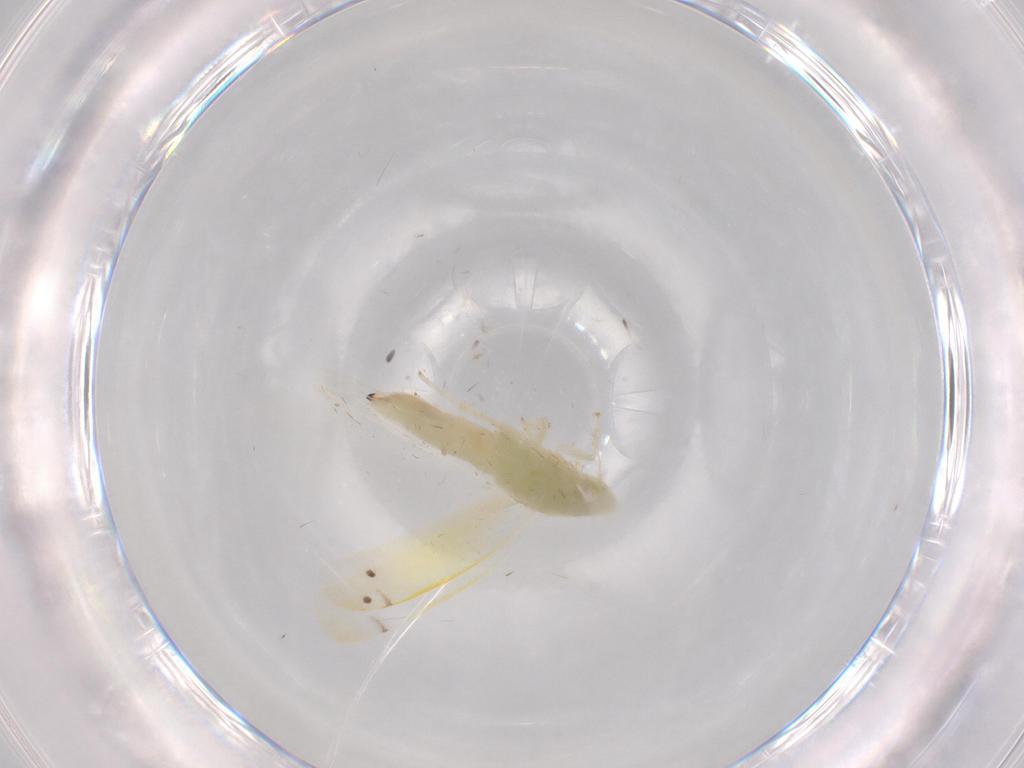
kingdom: Animalia
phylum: Arthropoda
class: Insecta
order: Hemiptera
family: Cicadellidae
